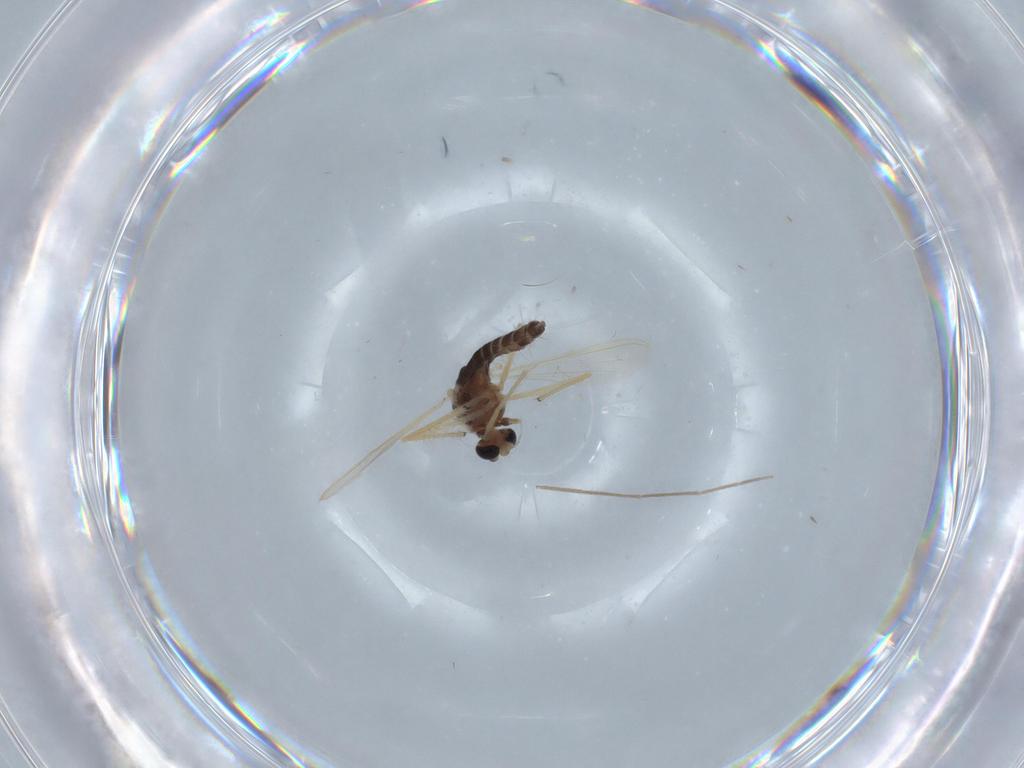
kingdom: Animalia
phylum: Arthropoda
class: Insecta
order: Diptera
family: Chironomidae
